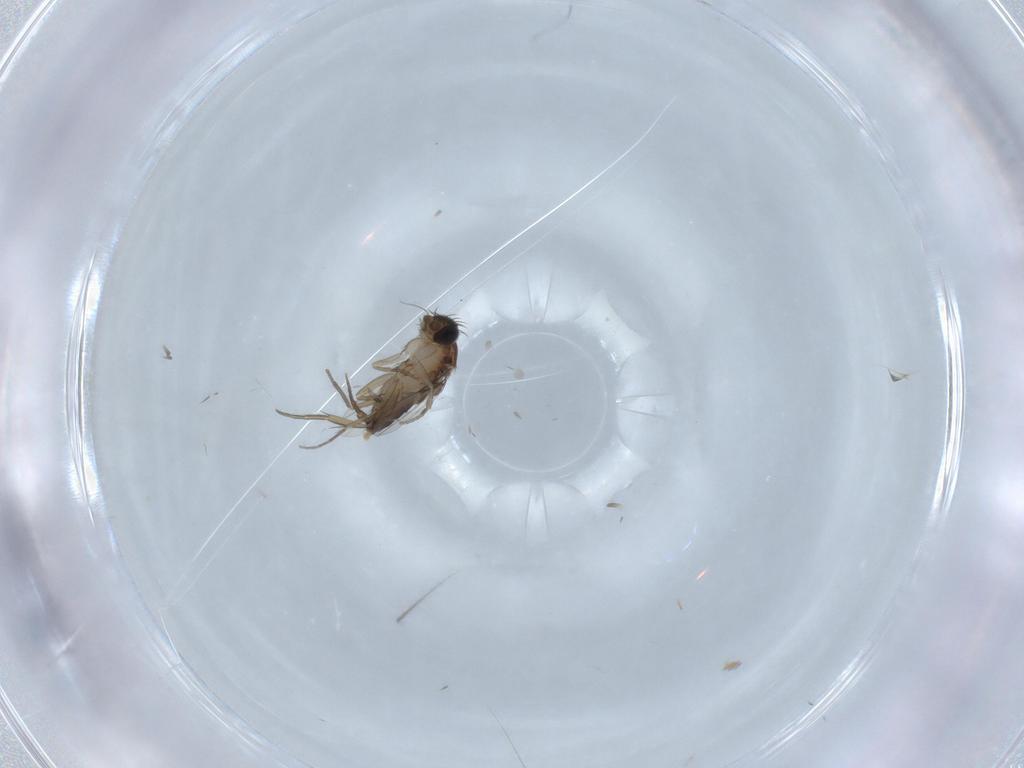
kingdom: Animalia
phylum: Arthropoda
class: Insecta
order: Diptera
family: Phoridae
